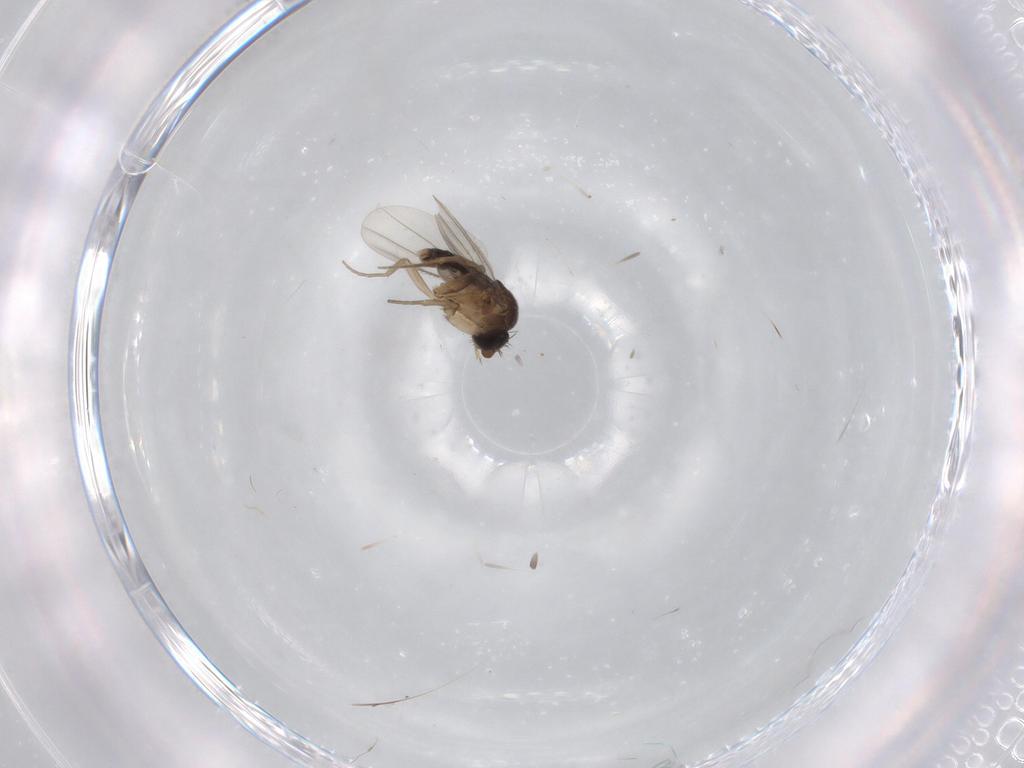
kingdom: Animalia
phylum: Arthropoda
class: Insecta
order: Diptera
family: Phoridae
